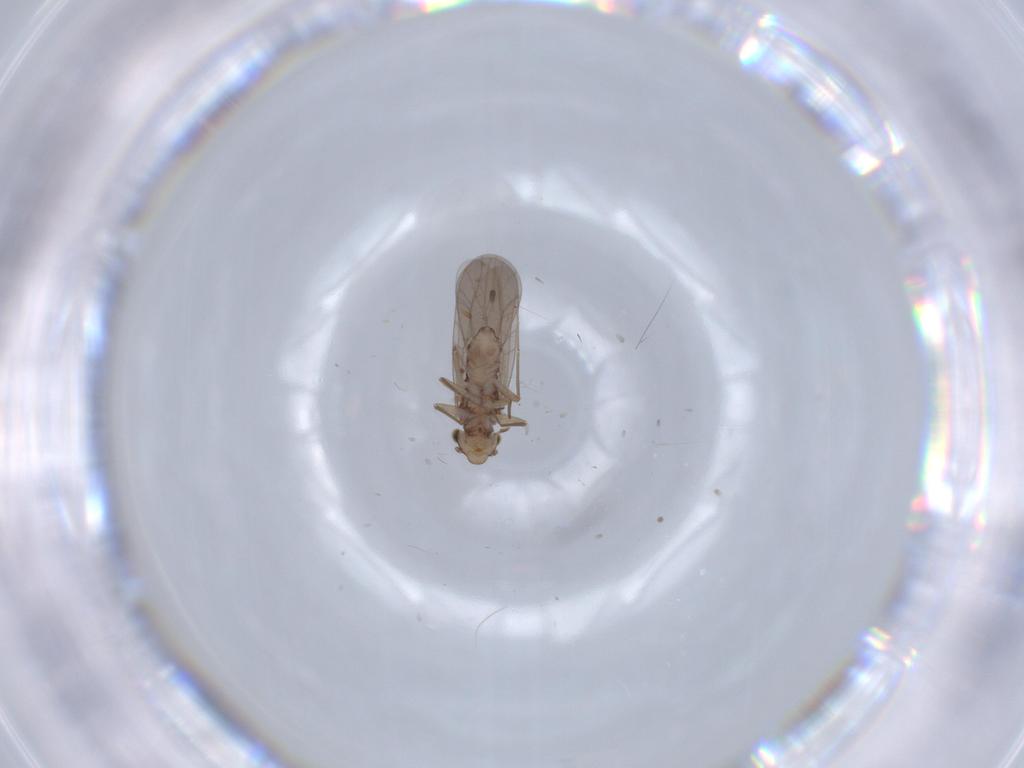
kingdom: Animalia
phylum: Arthropoda
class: Insecta
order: Psocodea
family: Lepidopsocidae
